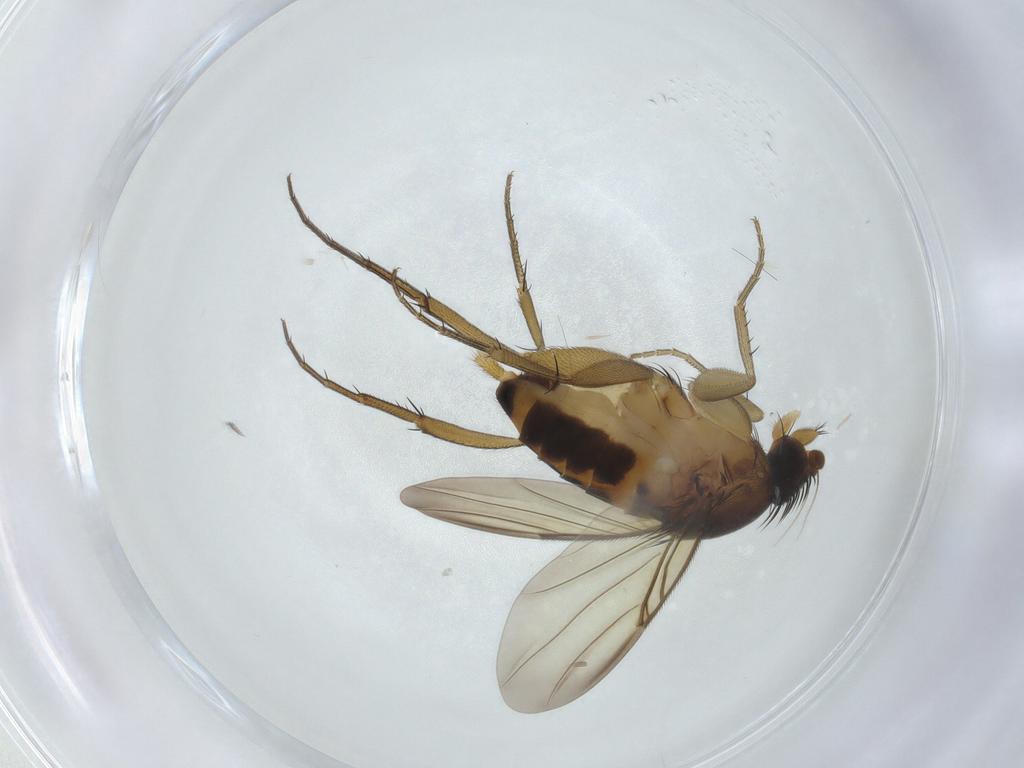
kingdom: Animalia
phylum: Arthropoda
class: Insecta
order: Diptera
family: Phoridae
